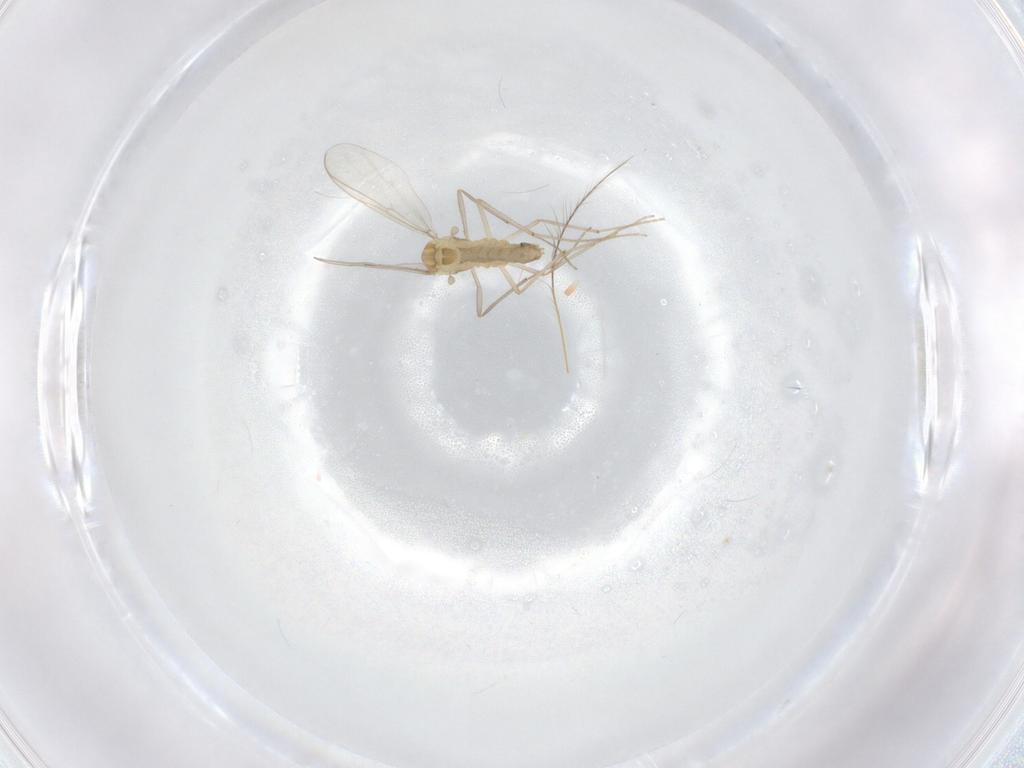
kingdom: Animalia
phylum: Arthropoda
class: Insecta
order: Diptera
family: Chironomidae
